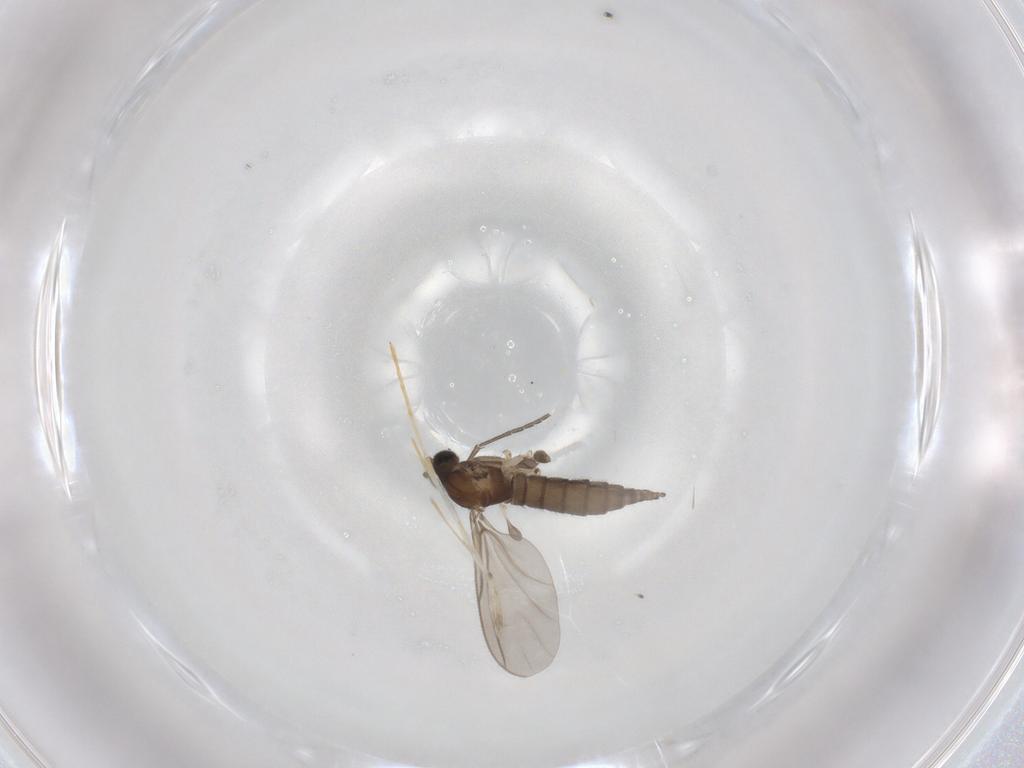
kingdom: Animalia
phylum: Arthropoda
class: Insecta
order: Diptera
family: Sciaridae
